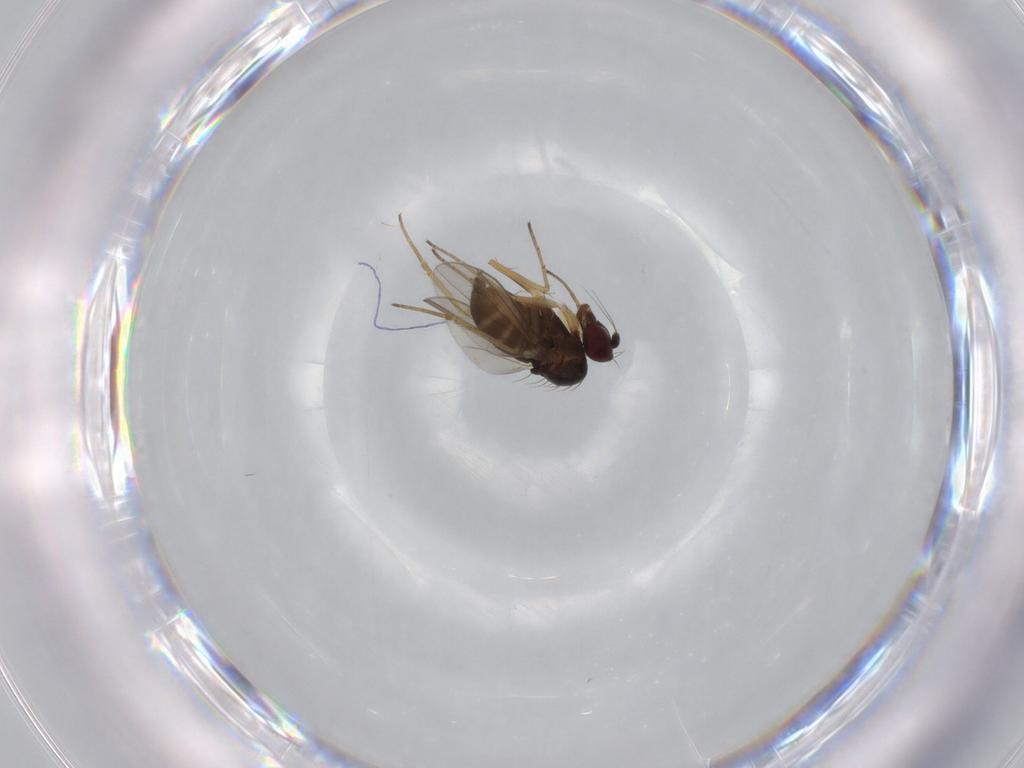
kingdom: Animalia
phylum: Arthropoda
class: Insecta
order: Diptera
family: Dolichopodidae
